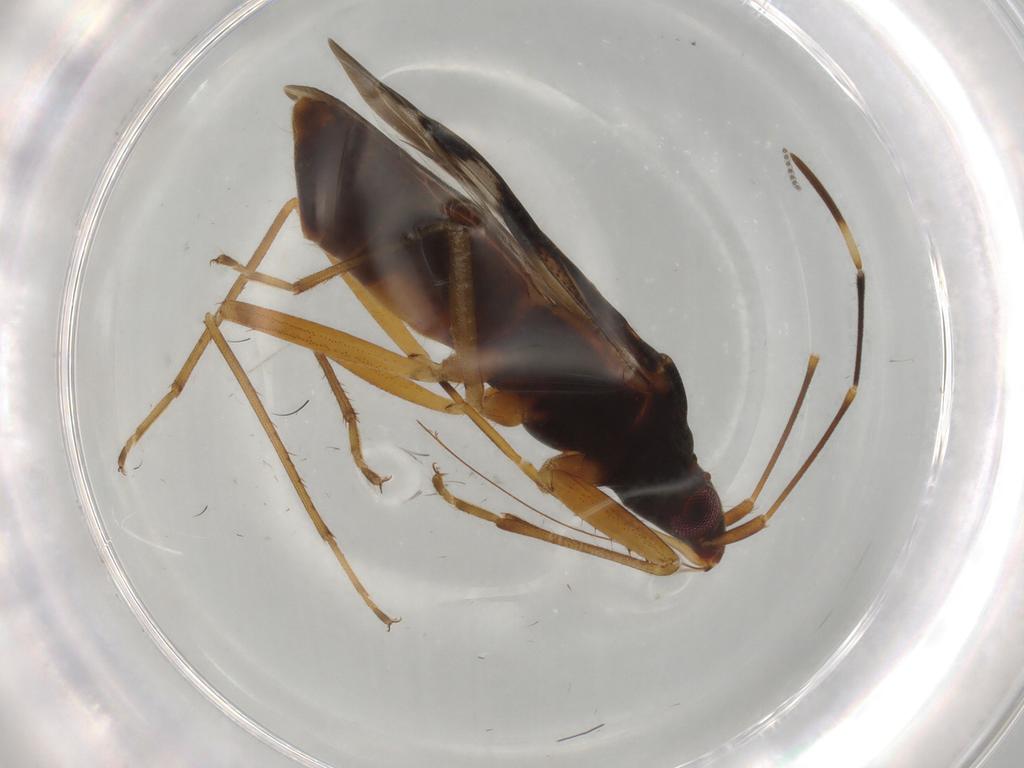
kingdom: Animalia
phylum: Arthropoda
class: Insecta
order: Hemiptera
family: Rhyparochromidae
